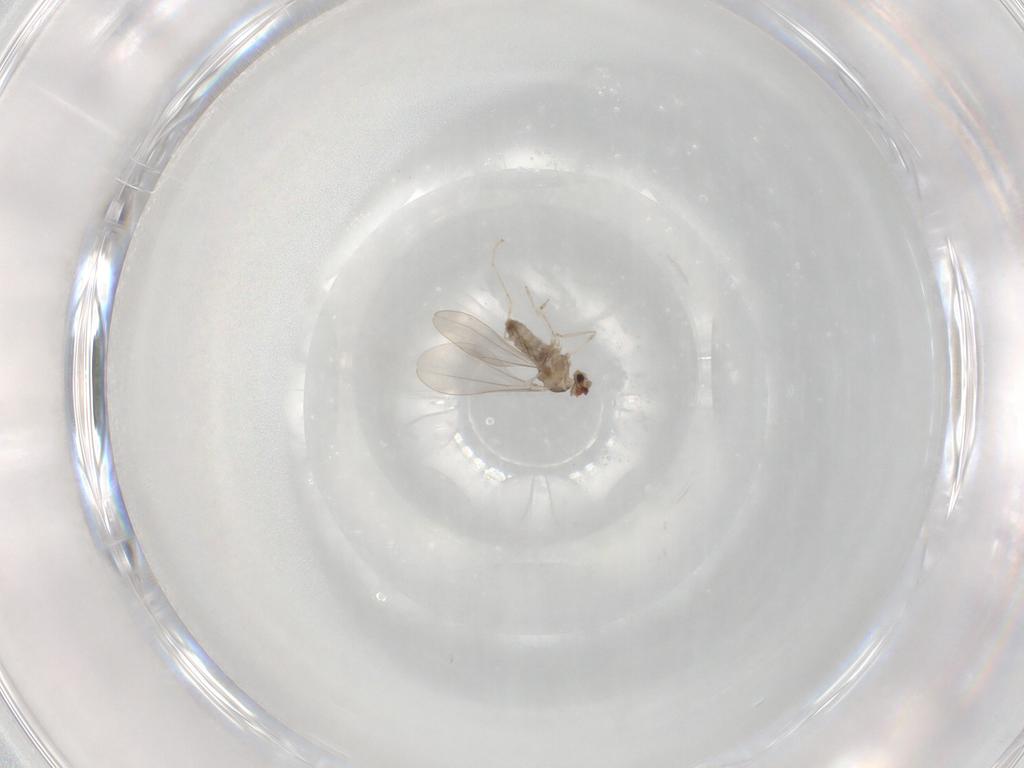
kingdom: Animalia
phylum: Arthropoda
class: Insecta
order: Diptera
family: Cecidomyiidae
